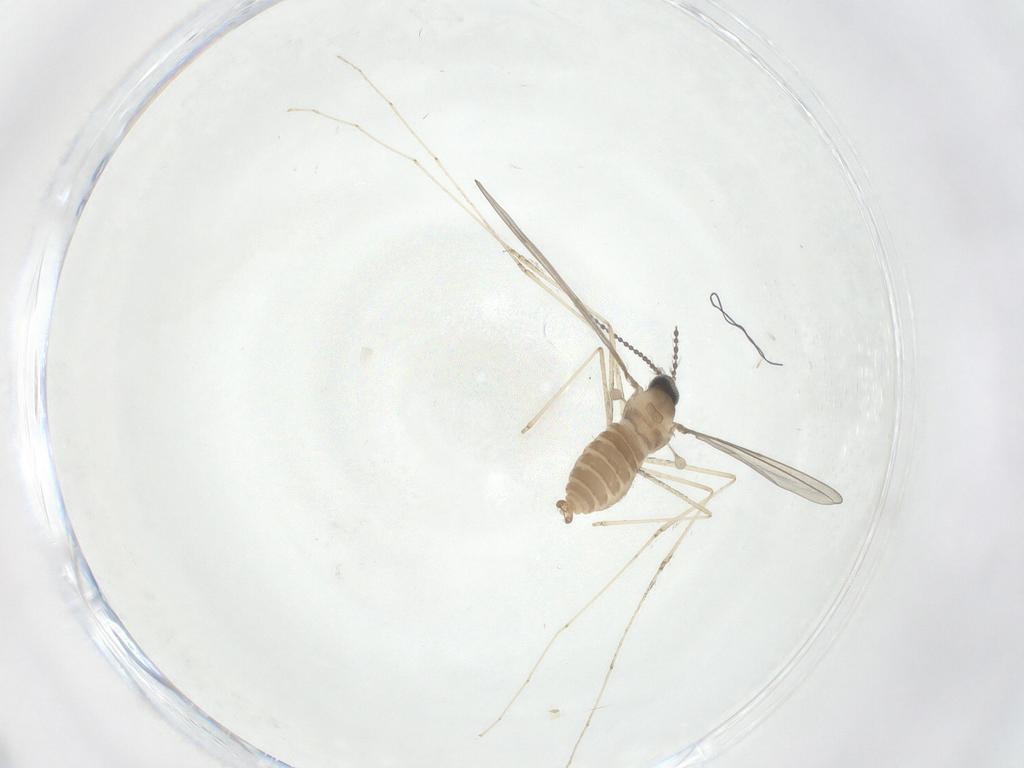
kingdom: Animalia
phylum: Arthropoda
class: Insecta
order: Diptera
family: Cecidomyiidae
